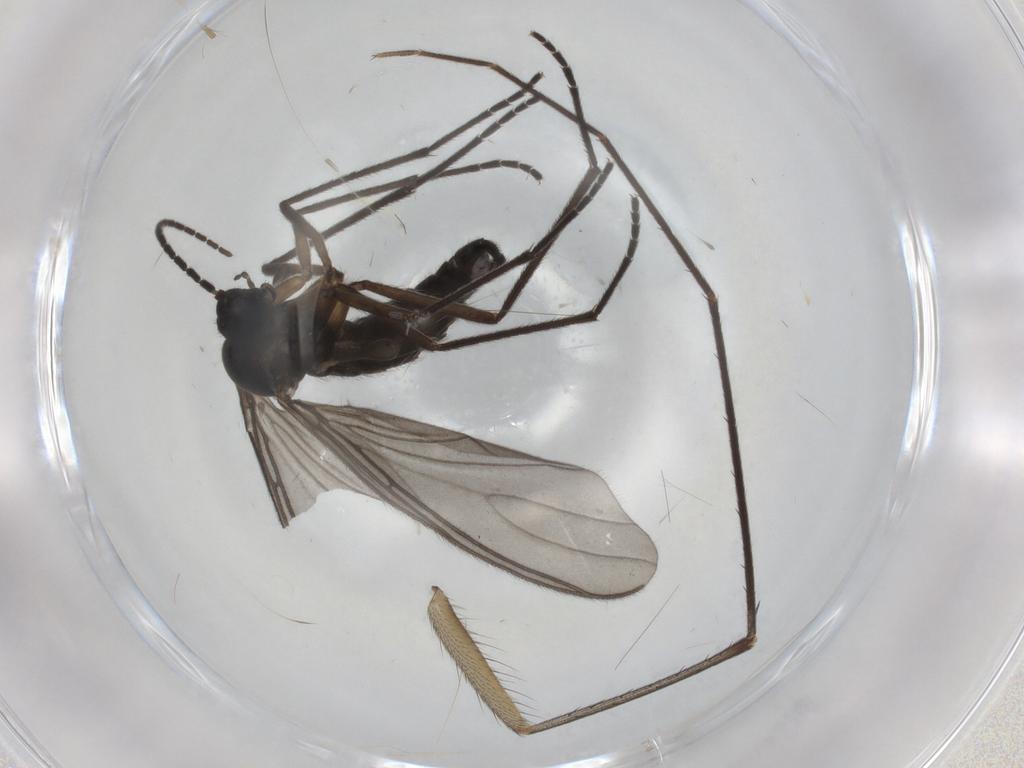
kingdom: Animalia
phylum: Arthropoda
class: Insecta
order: Diptera
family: Sciaridae
